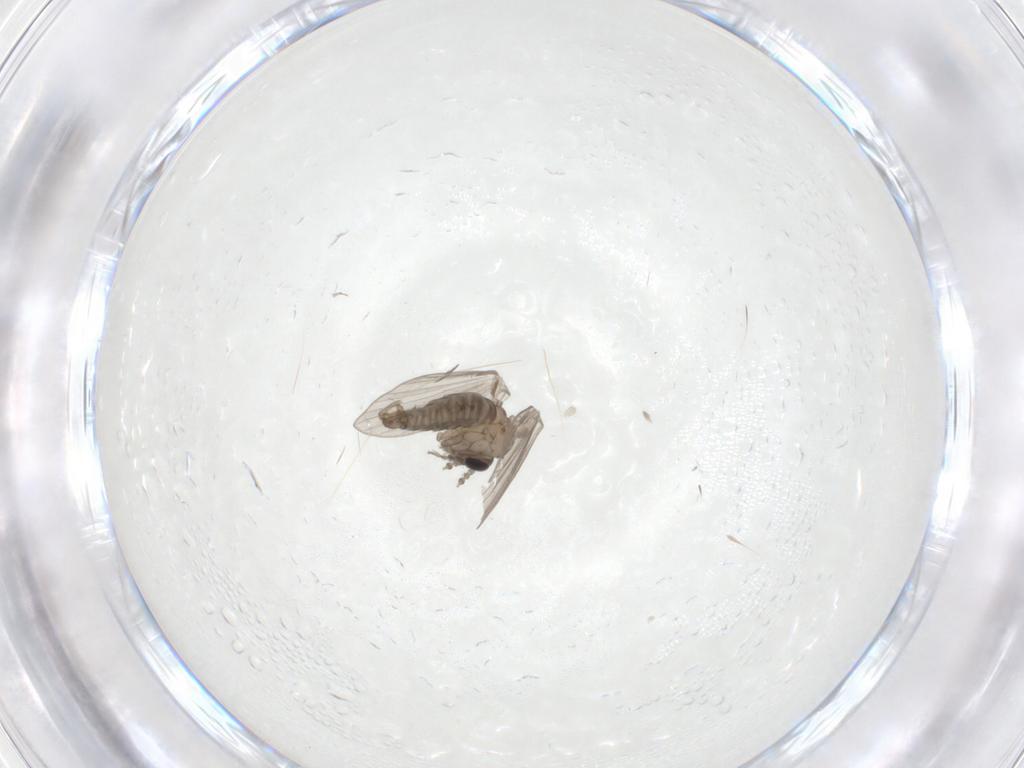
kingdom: Animalia
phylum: Arthropoda
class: Insecta
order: Diptera
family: Psychodidae
